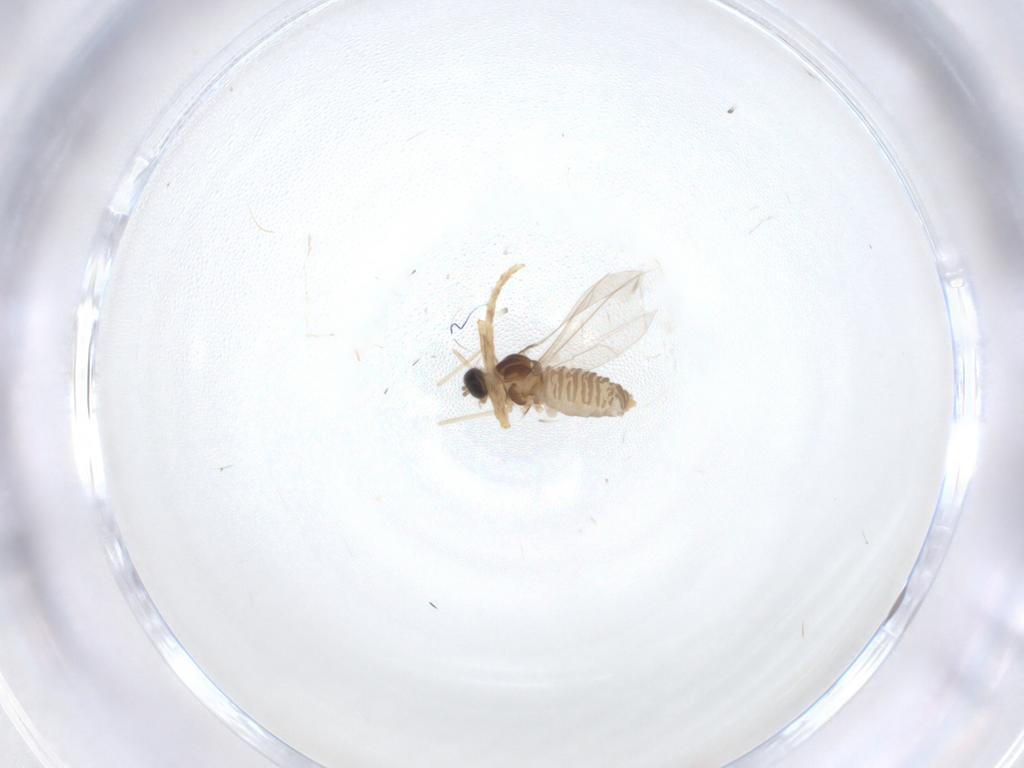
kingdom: Animalia
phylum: Arthropoda
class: Insecta
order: Diptera
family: Cecidomyiidae
